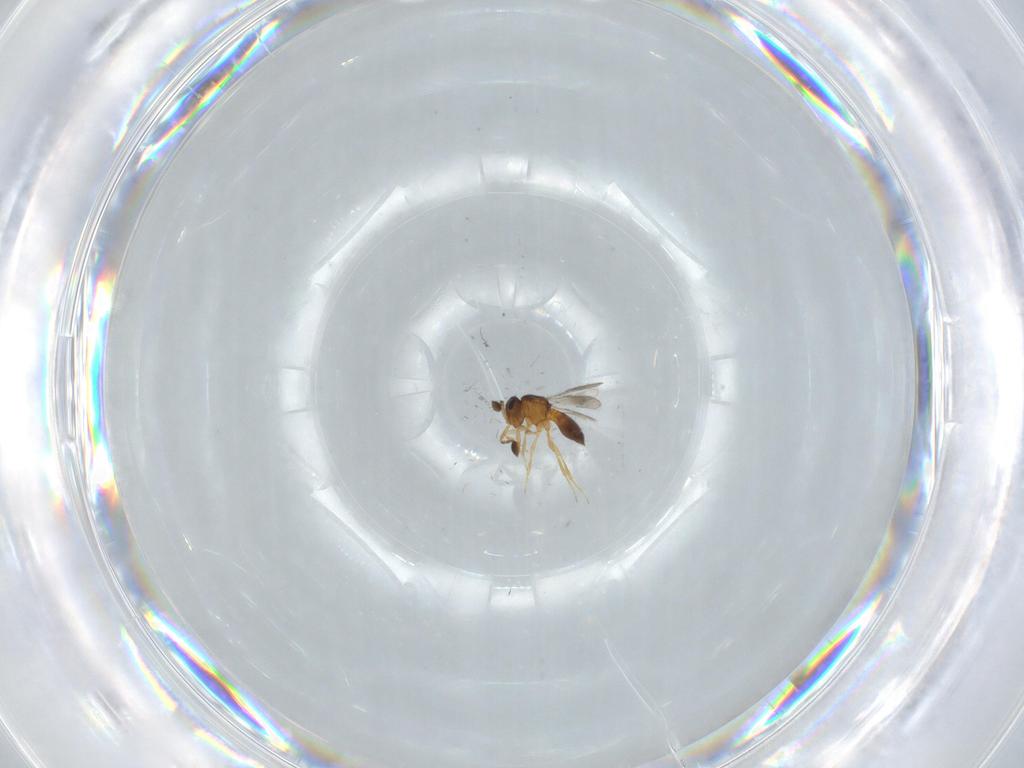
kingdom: Animalia
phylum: Arthropoda
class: Insecta
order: Hymenoptera
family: Scelionidae
